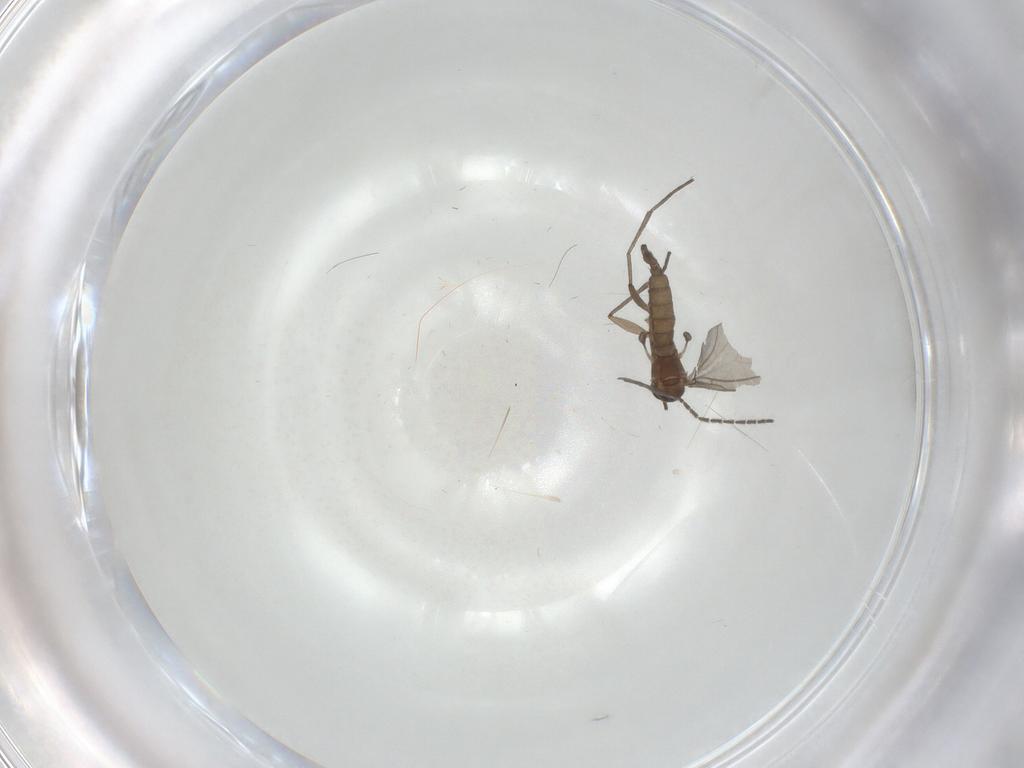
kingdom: Animalia
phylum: Arthropoda
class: Insecta
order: Diptera
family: Sciaridae
